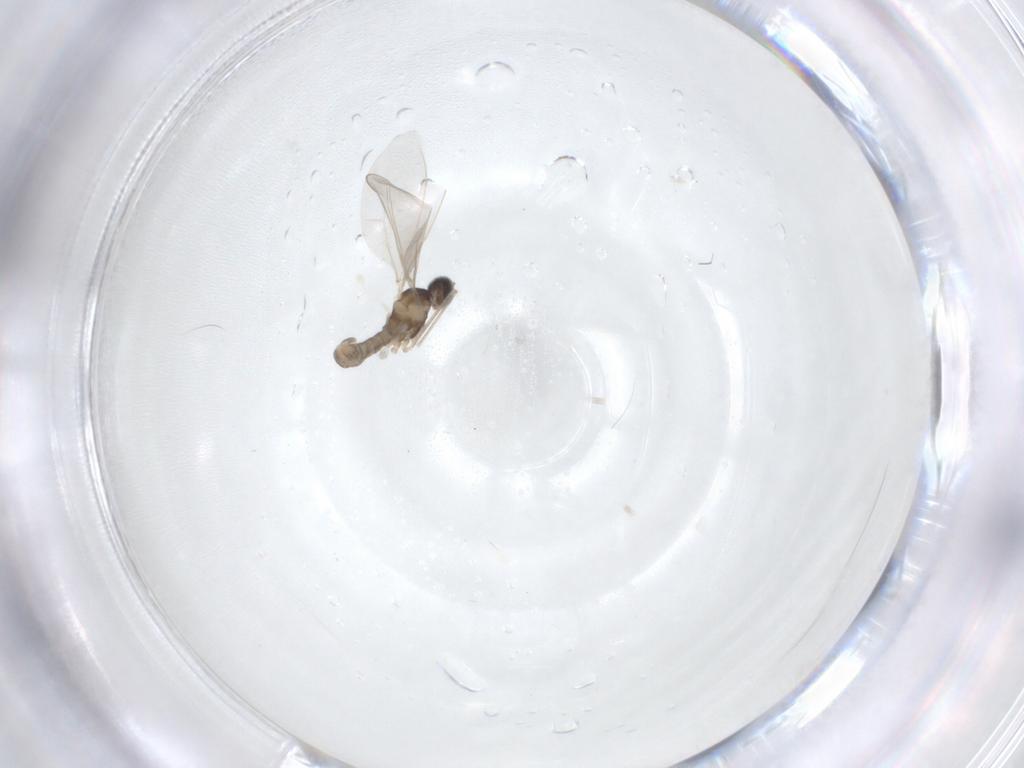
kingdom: Animalia
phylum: Arthropoda
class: Insecta
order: Diptera
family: Cecidomyiidae
